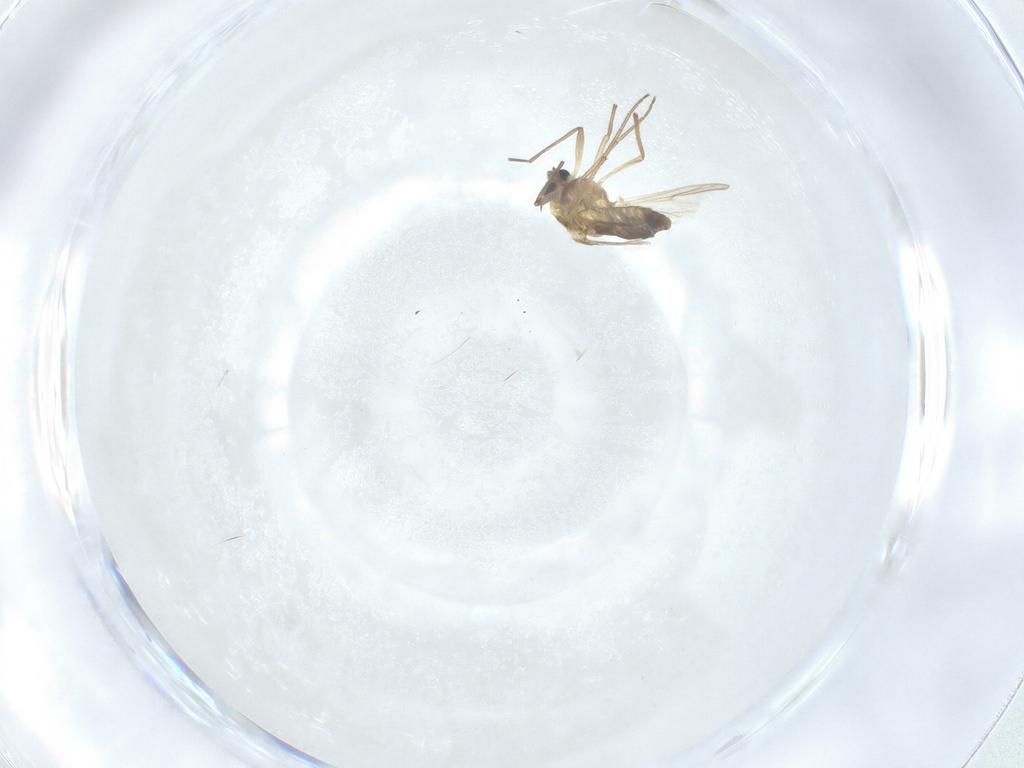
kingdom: Animalia
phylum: Arthropoda
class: Insecta
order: Diptera
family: Chironomidae
